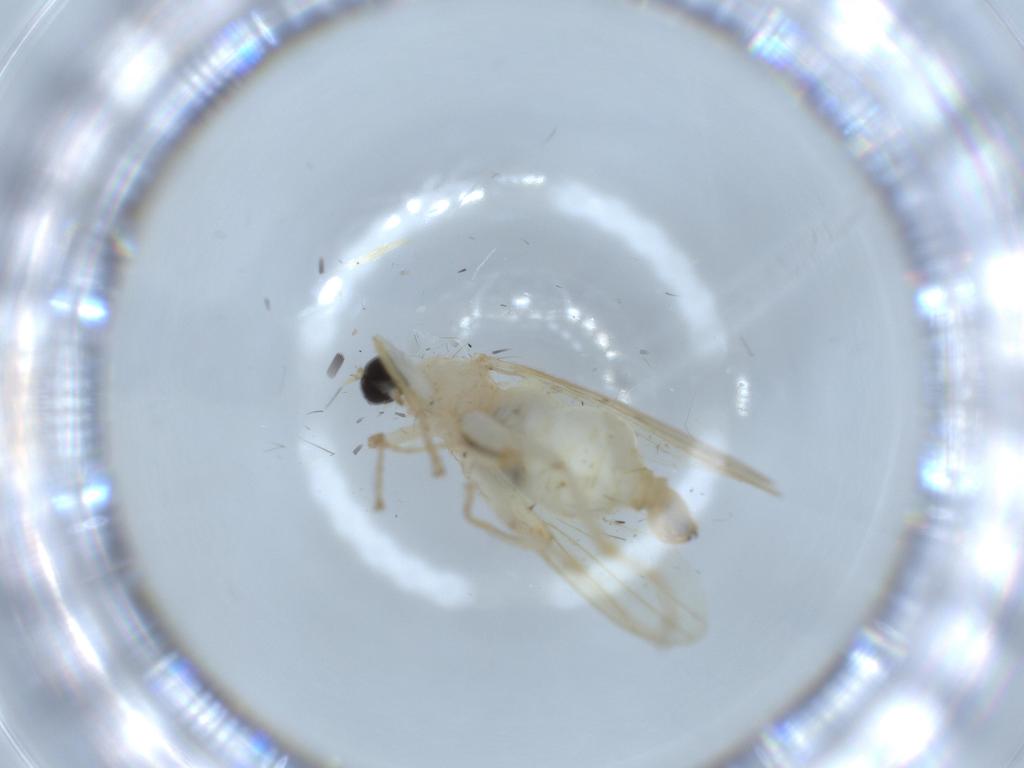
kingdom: Animalia
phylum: Arthropoda
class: Insecta
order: Diptera
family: Hybotidae
